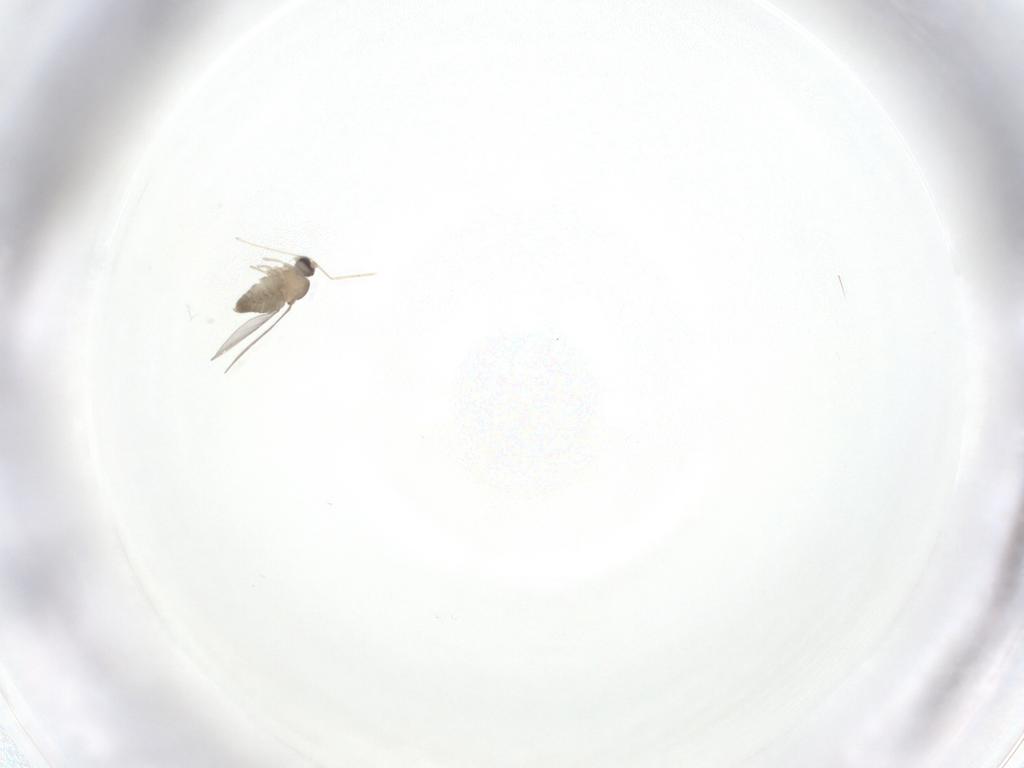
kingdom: Animalia
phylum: Arthropoda
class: Insecta
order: Diptera
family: Cecidomyiidae
